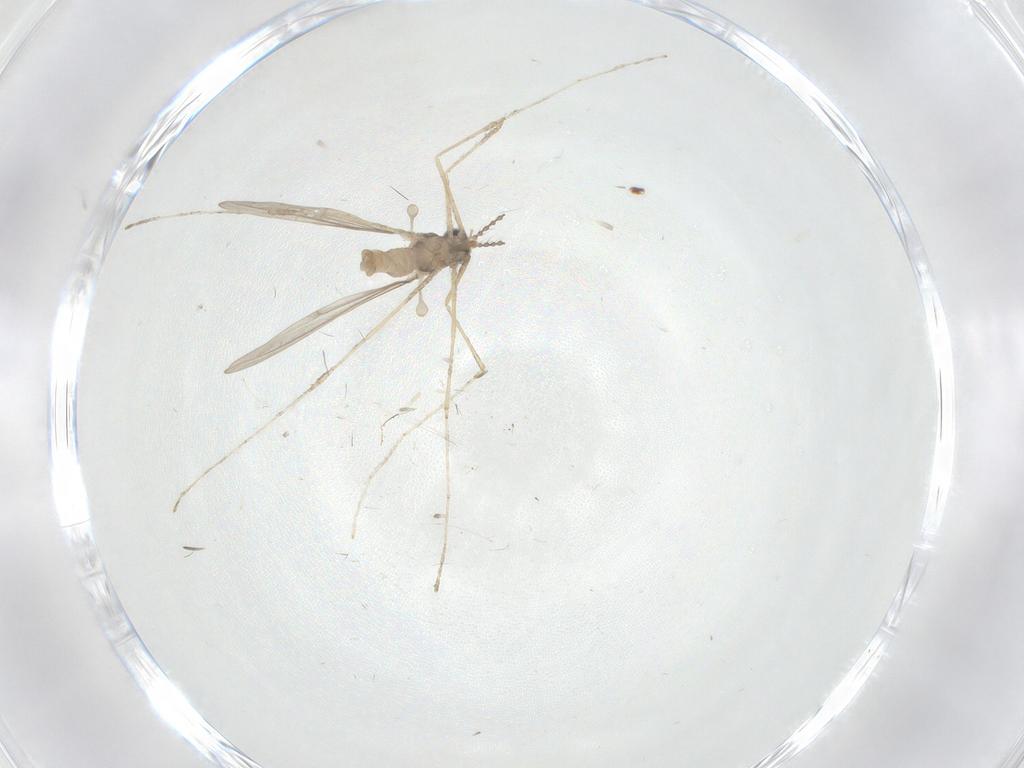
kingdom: Animalia
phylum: Arthropoda
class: Insecta
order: Diptera
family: Cecidomyiidae
